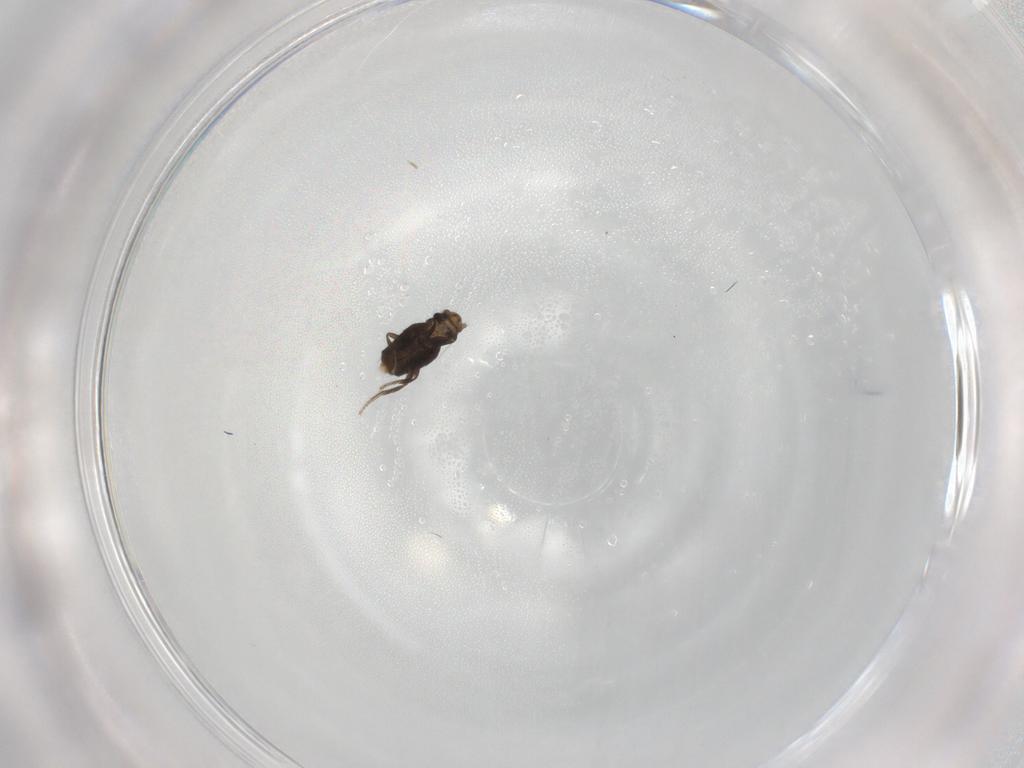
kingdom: Animalia
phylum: Arthropoda
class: Insecta
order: Diptera
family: Phoridae
